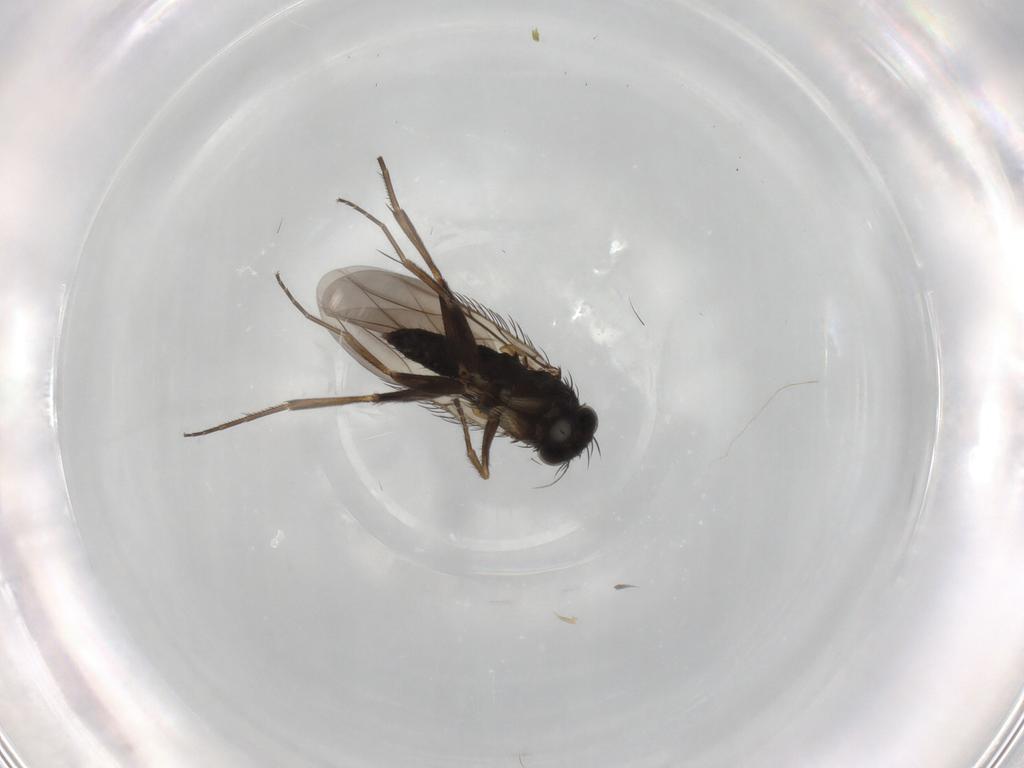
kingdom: Animalia
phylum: Arthropoda
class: Insecta
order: Diptera
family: Phoridae
